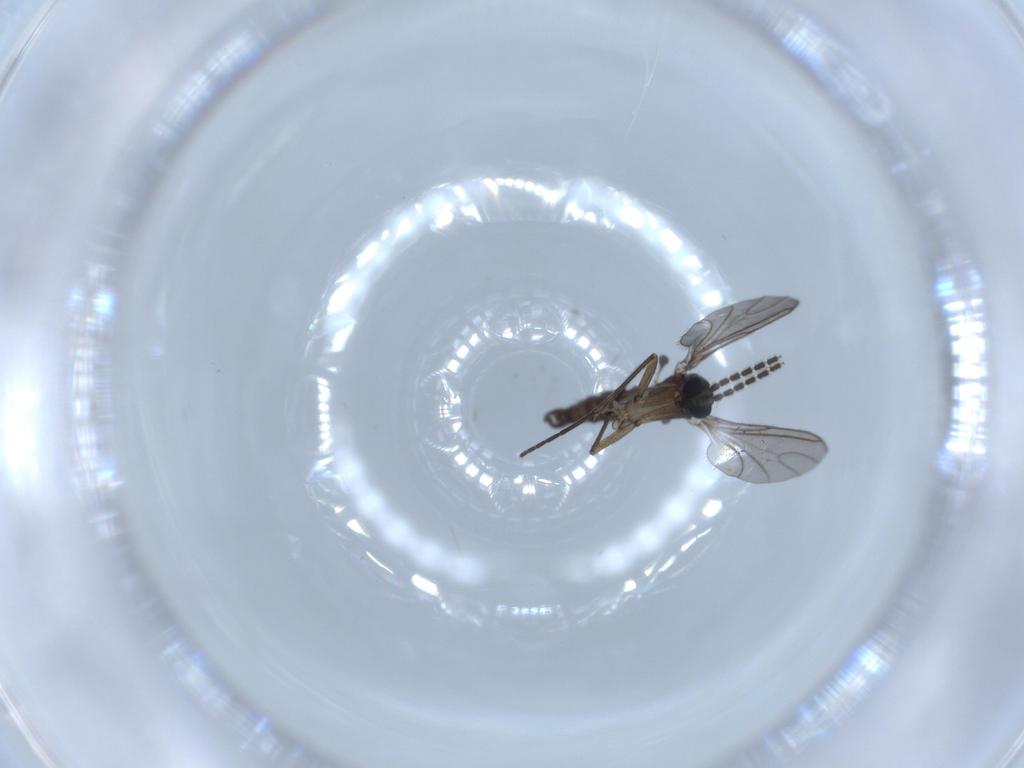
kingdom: Animalia
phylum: Arthropoda
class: Insecta
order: Diptera
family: Sciaridae
